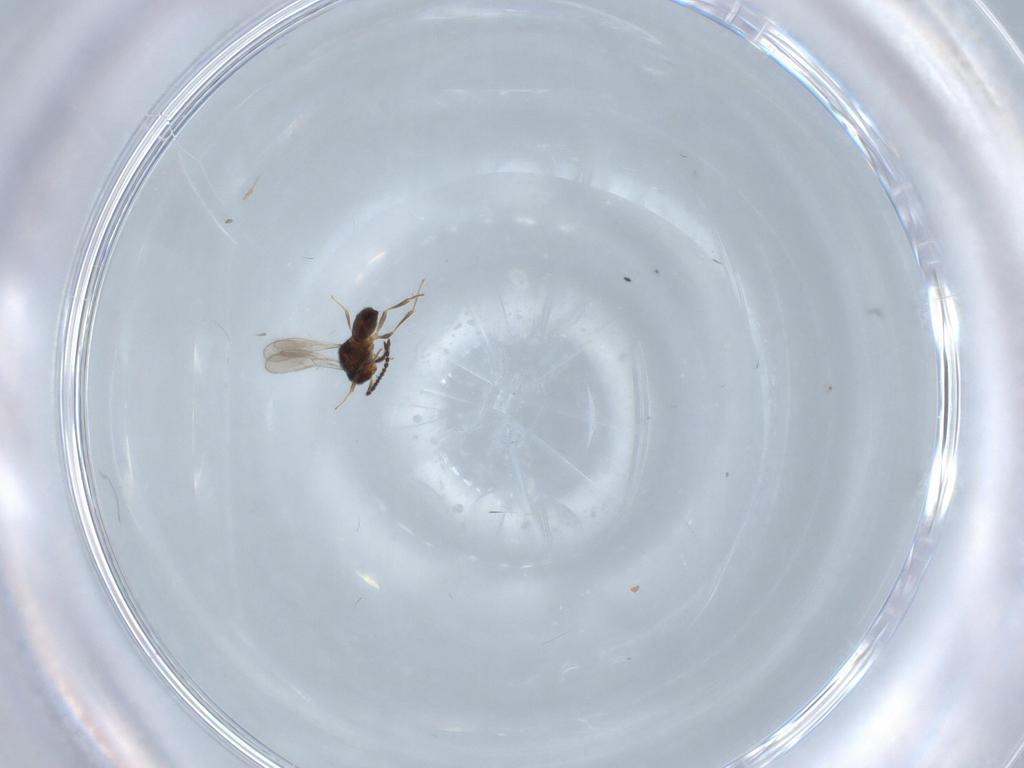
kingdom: Animalia
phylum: Arthropoda
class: Insecta
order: Hymenoptera
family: Scelionidae
